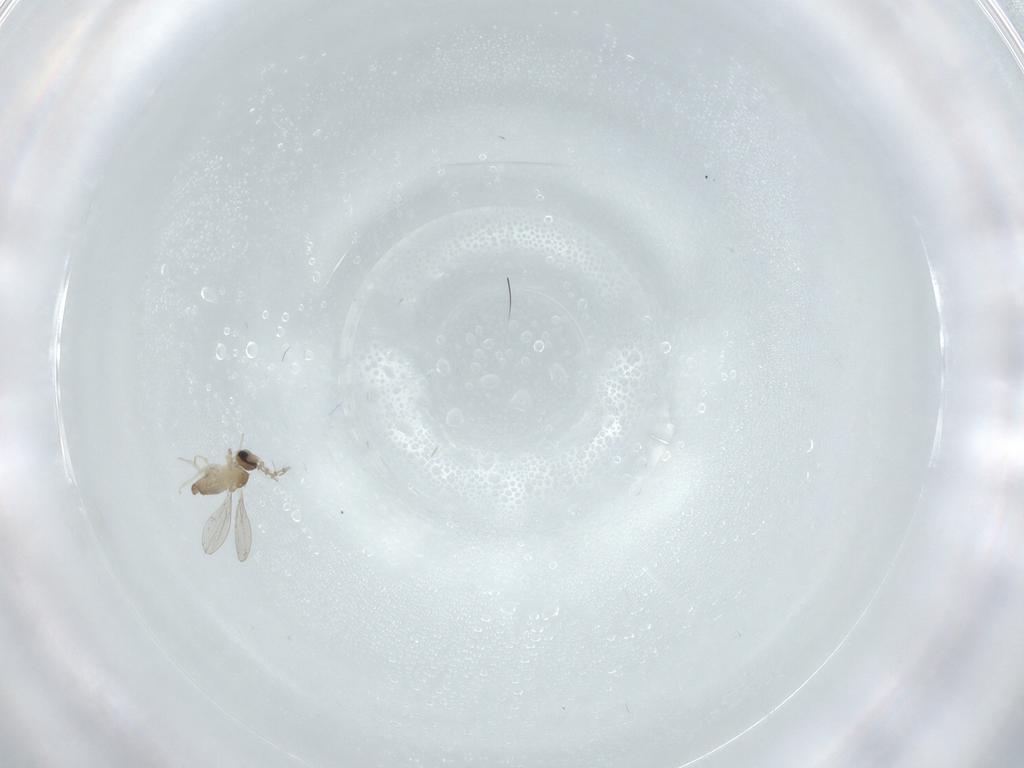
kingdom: Animalia
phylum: Arthropoda
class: Insecta
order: Diptera
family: Cecidomyiidae
